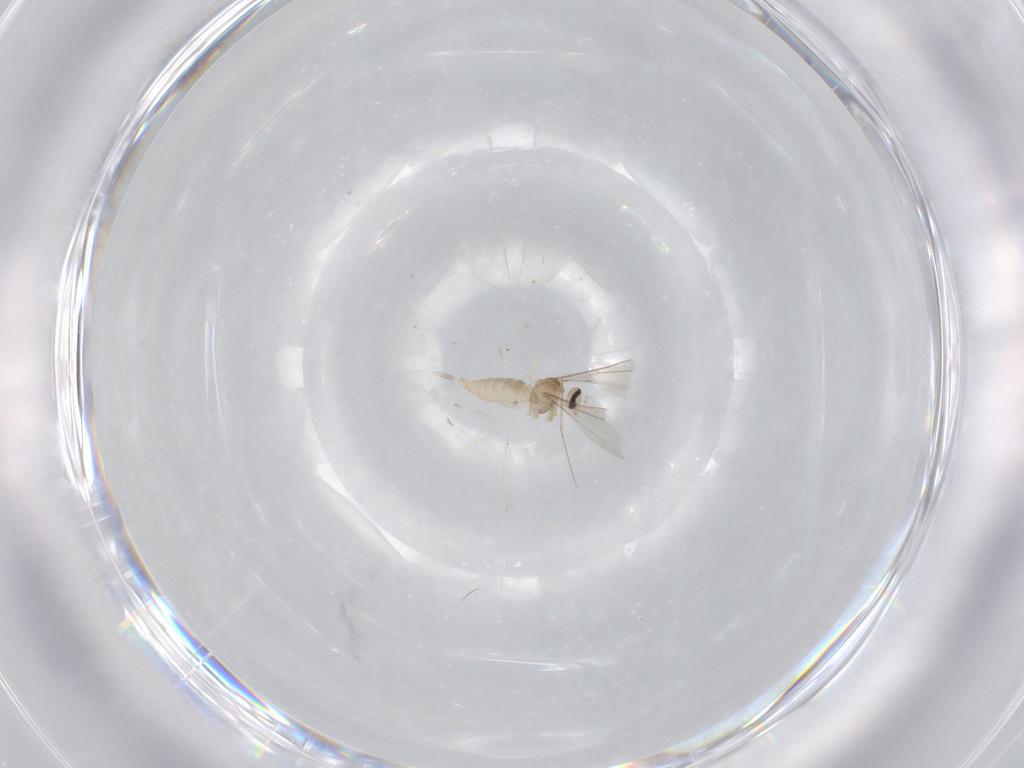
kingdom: Animalia
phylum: Arthropoda
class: Insecta
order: Diptera
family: Cecidomyiidae
